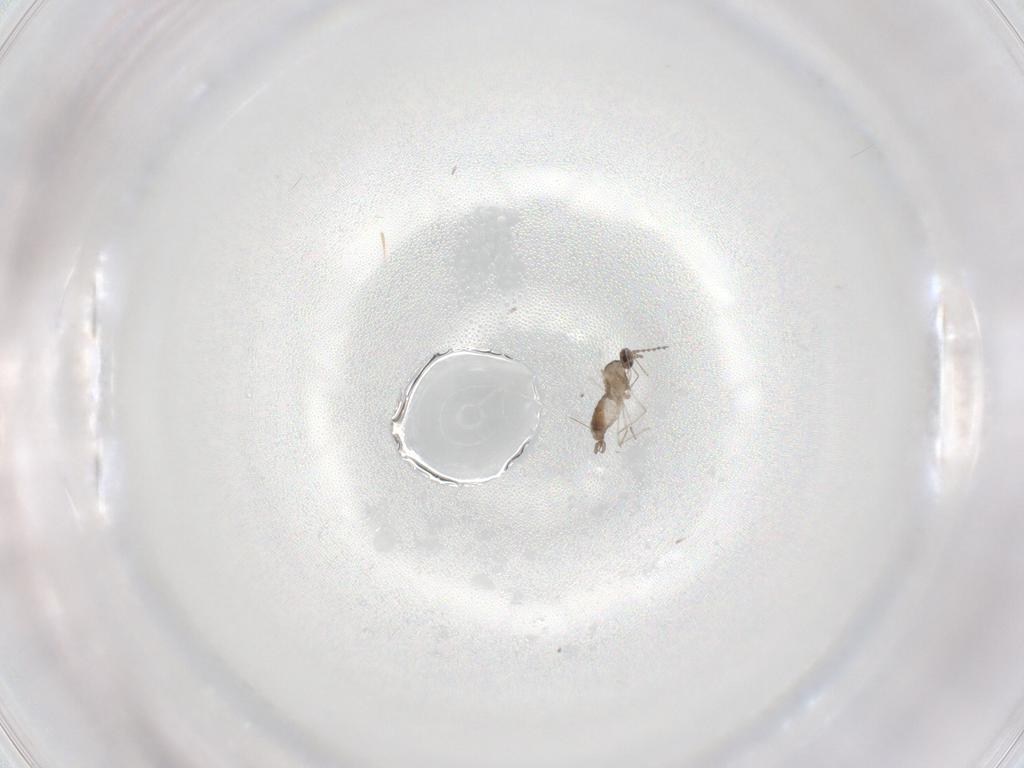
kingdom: Animalia
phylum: Arthropoda
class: Insecta
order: Diptera
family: Cecidomyiidae
